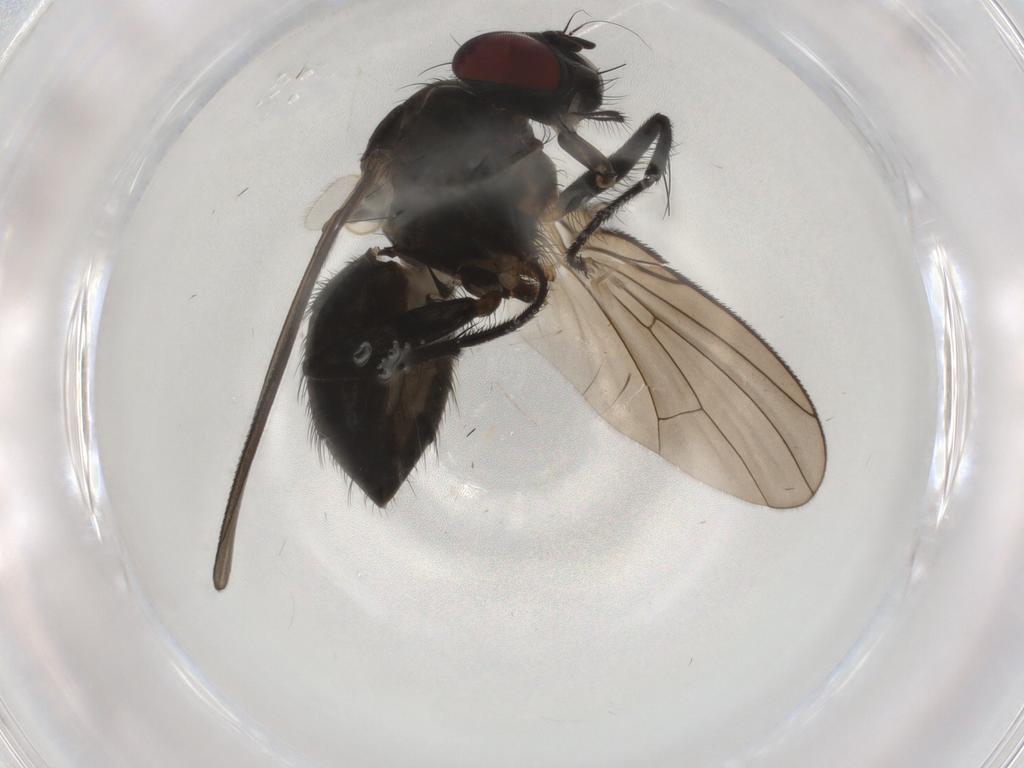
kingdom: Animalia
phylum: Arthropoda
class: Insecta
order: Diptera
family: Muscidae
